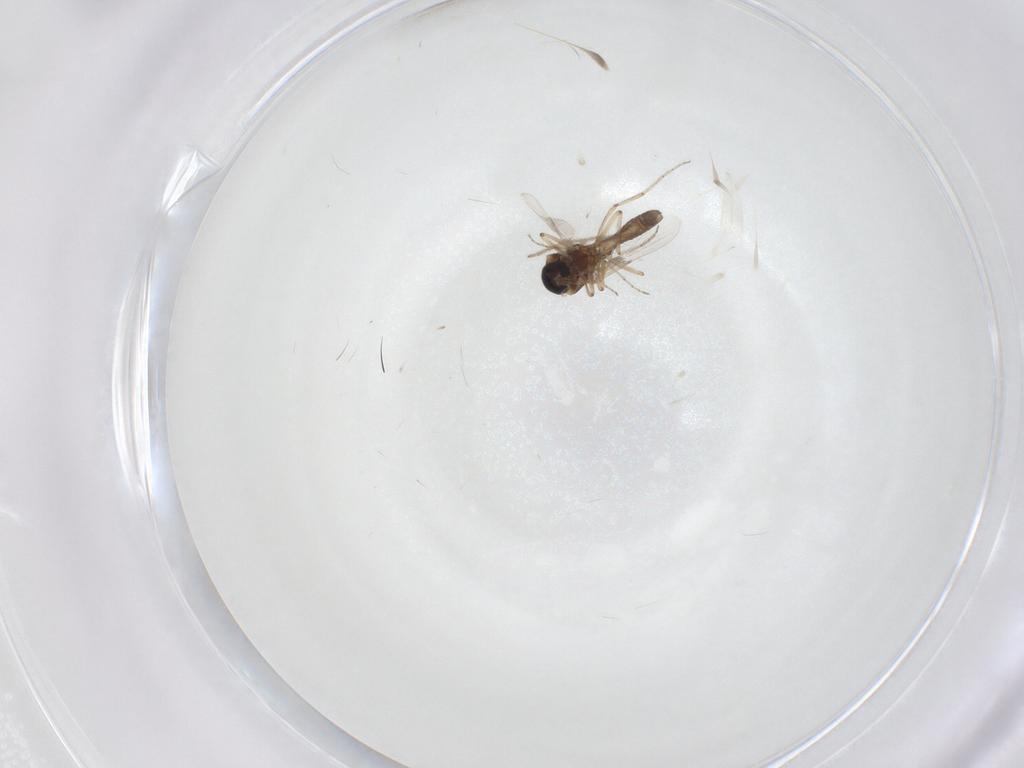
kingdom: Animalia
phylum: Arthropoda
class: Insecta
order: Diptera
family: Ceratopogonidae
